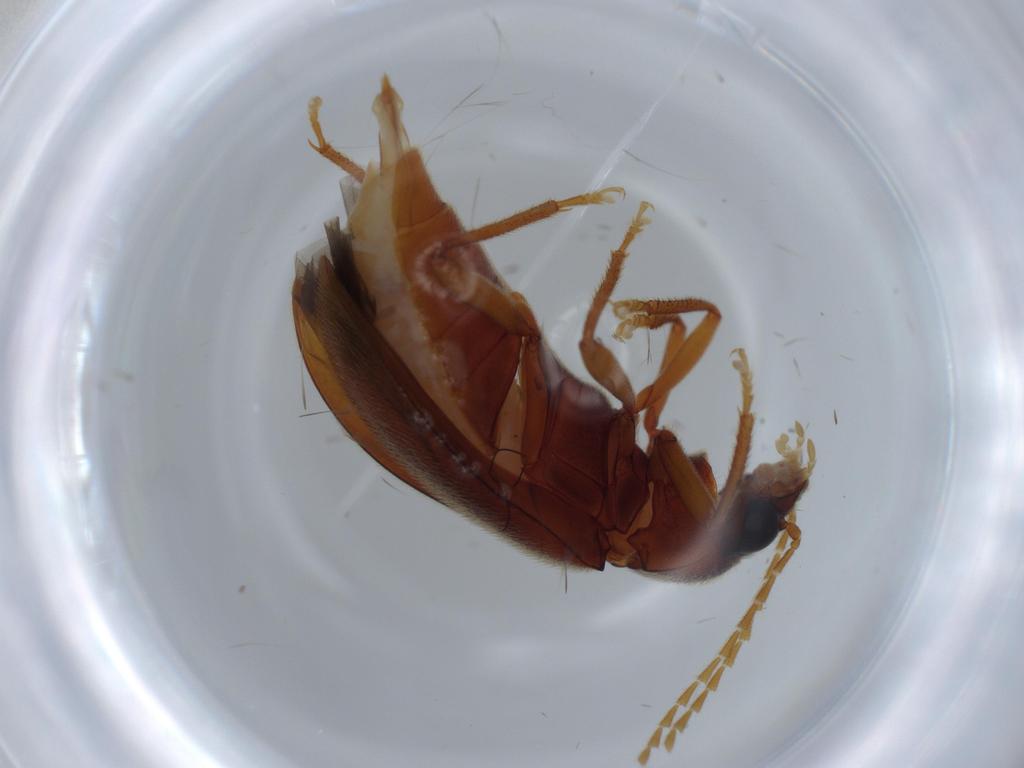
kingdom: Animalia
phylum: Arthropoda
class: Insecta
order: Coleoptera
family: Ptilodactylidae
